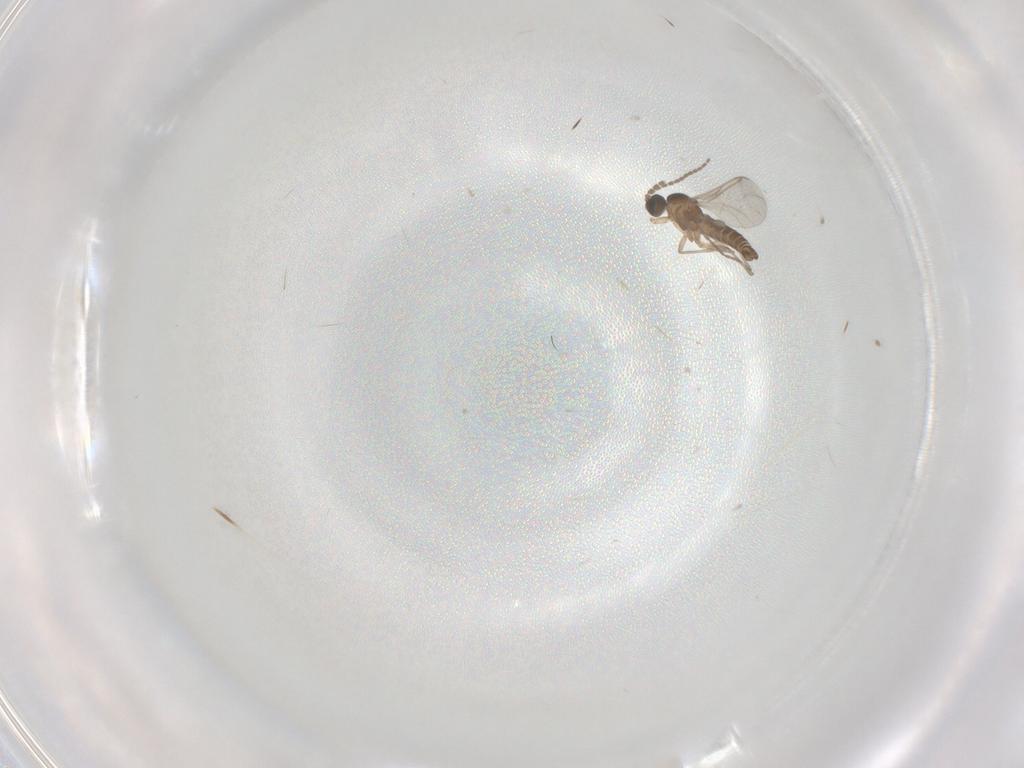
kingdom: Animalia
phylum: Arthropoda
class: Insecta
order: Diptera
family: Sciaridae
